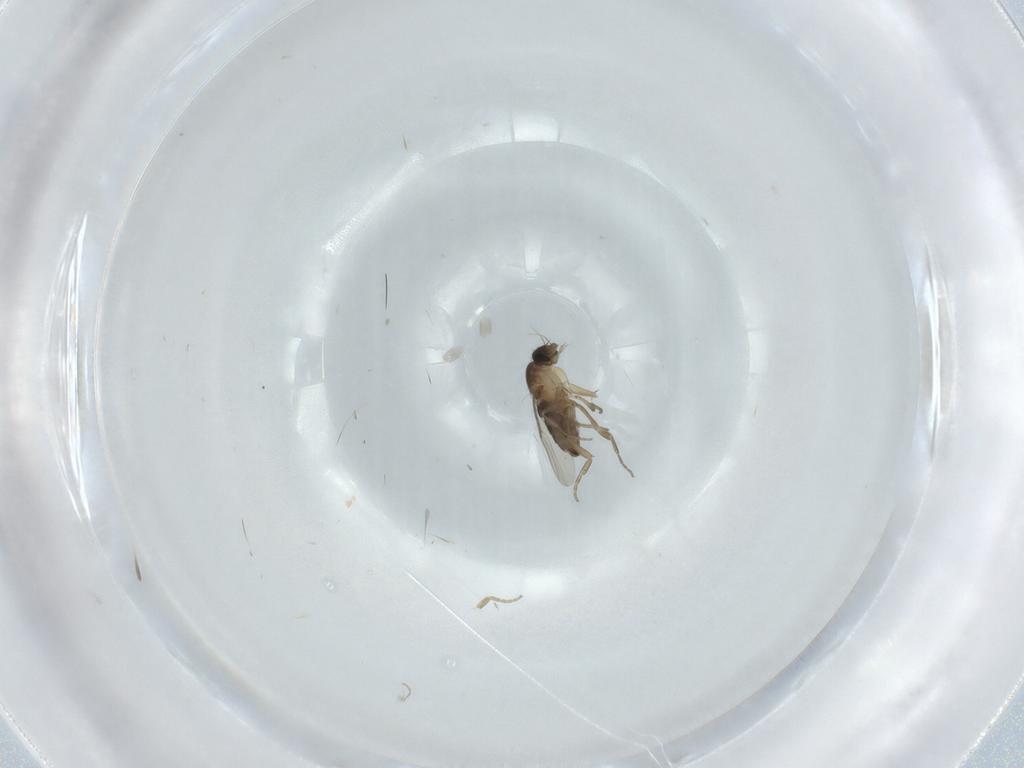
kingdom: Animalia
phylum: Arthropoda
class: Insecta
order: Diptera
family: Phoridae
